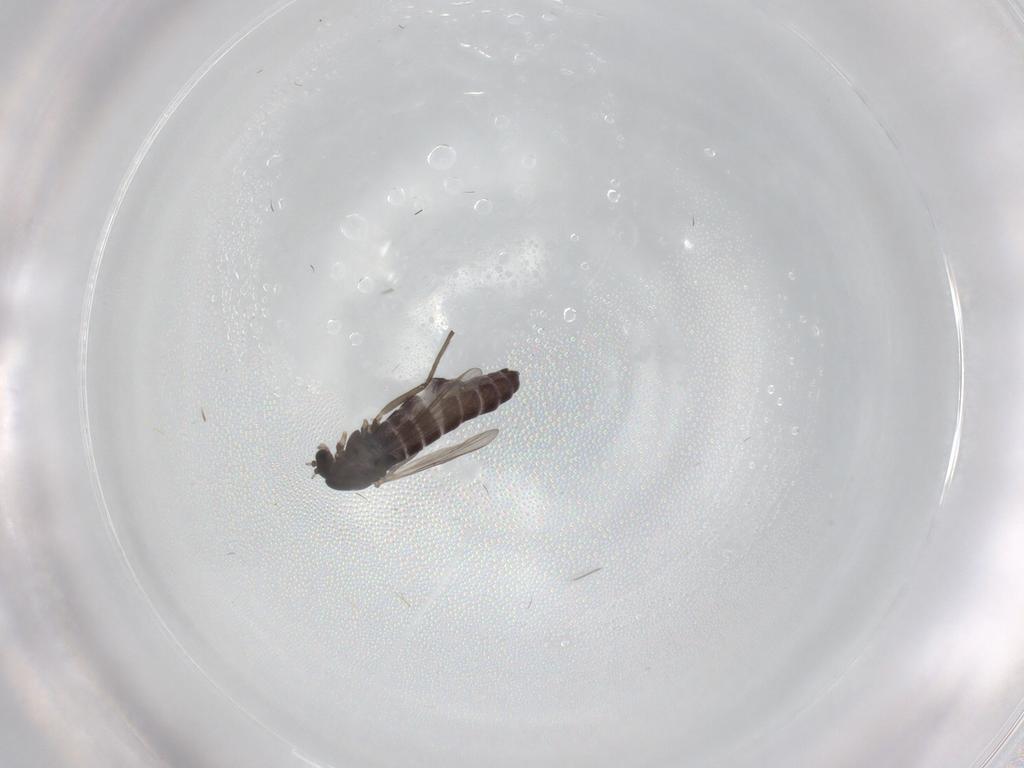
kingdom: Animalia
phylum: Arthropoda
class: Insecta
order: Diptera
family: Chironomidae
